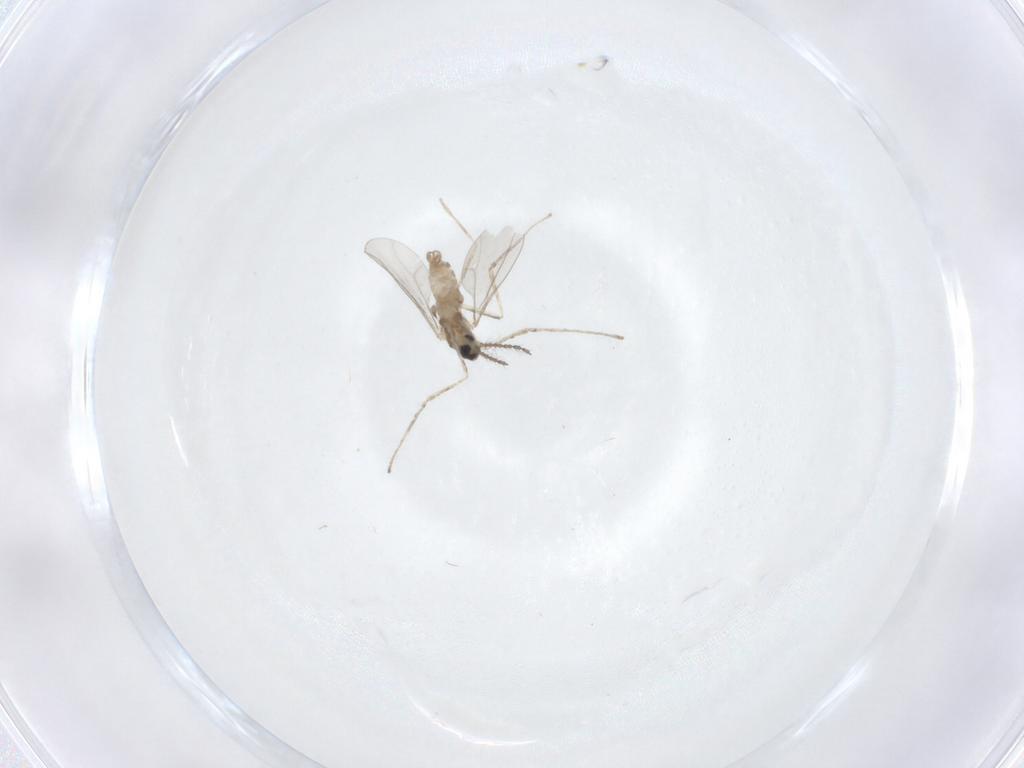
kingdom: Animalia
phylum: Arthropoda
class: Insecta
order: Diptera
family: Cecidomyiidae
